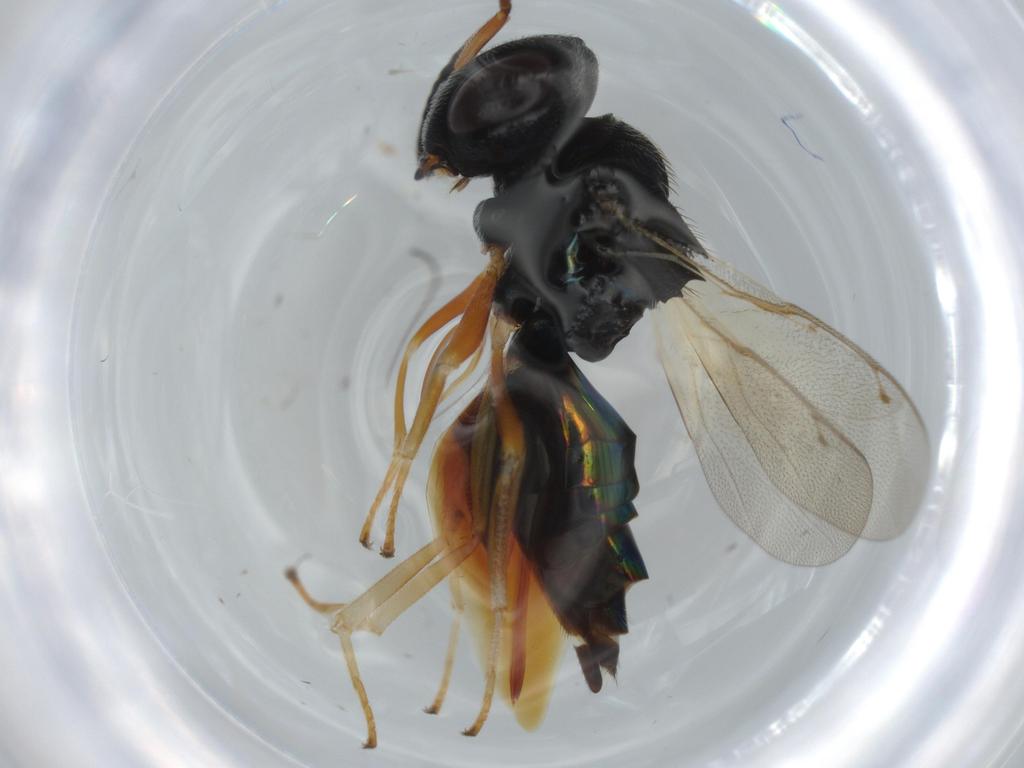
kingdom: Animalia
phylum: Arthropoda
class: Insecta
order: Hymenoptera
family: Pteromalidae
